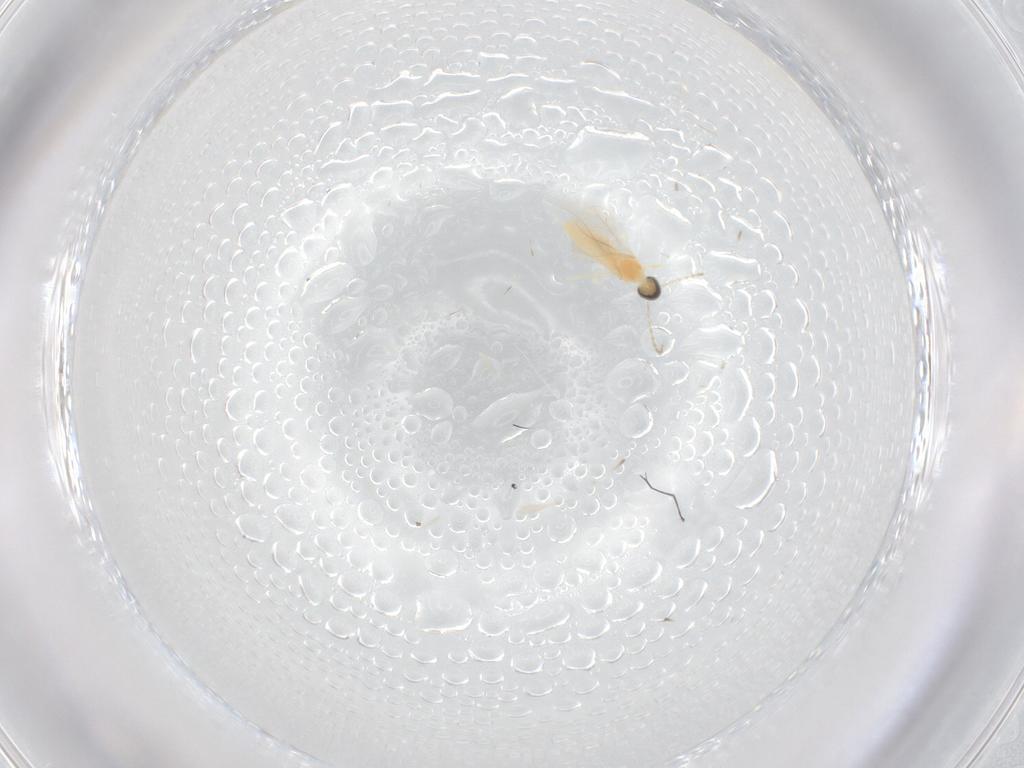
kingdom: Animalia
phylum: Arthropoda
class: Insecta
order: Diptera
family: Cecidomyiidae
